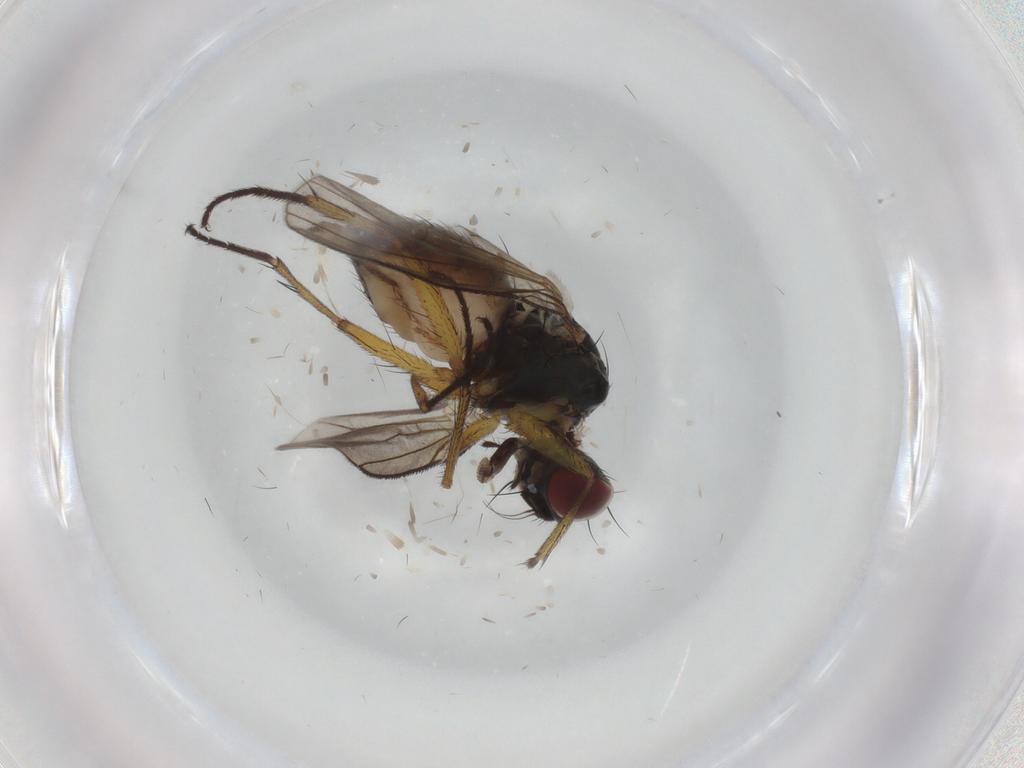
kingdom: Animalia
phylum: Arthropoda
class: Insecta
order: Diptera
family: Muscidae
